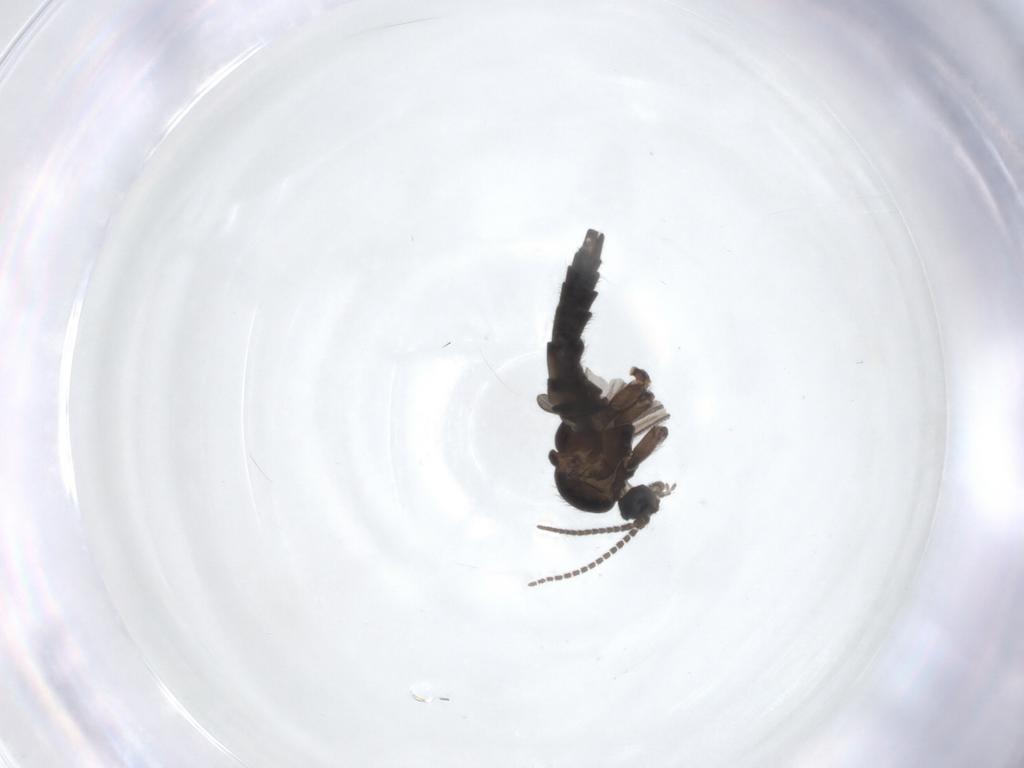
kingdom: Animalia
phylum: Arthropoda
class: Insecta
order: Diptera
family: Sciaridae
